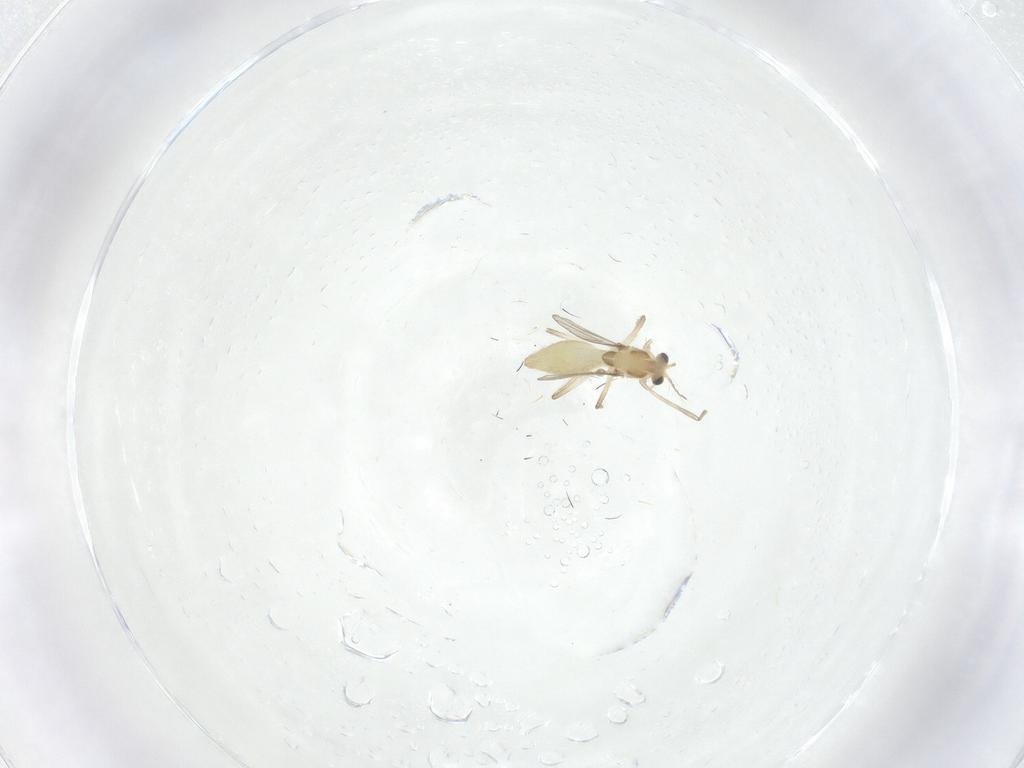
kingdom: Animalia
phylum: Arthropoda
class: Insecta
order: Diptera
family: Chironomidae
